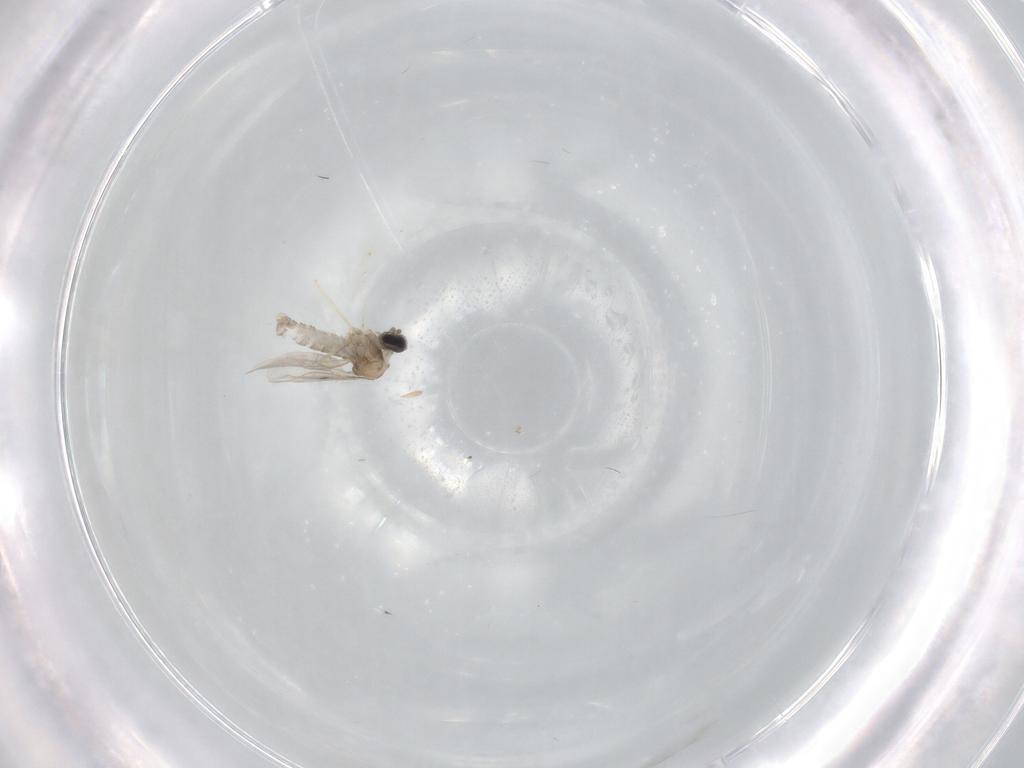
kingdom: Animalia
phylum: Arthropoda
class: Insecta
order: Diptera
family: Cecidomyiidae
